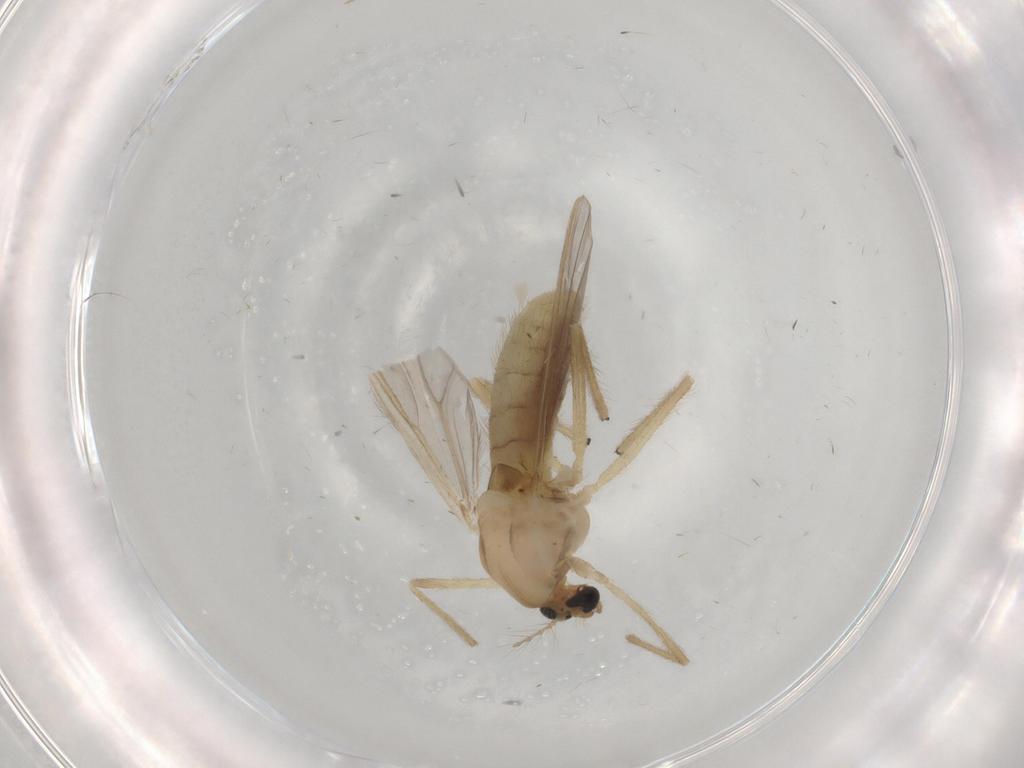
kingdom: Animalia
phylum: Arthropoda
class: Insecta
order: Diptera
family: Chironomidae
